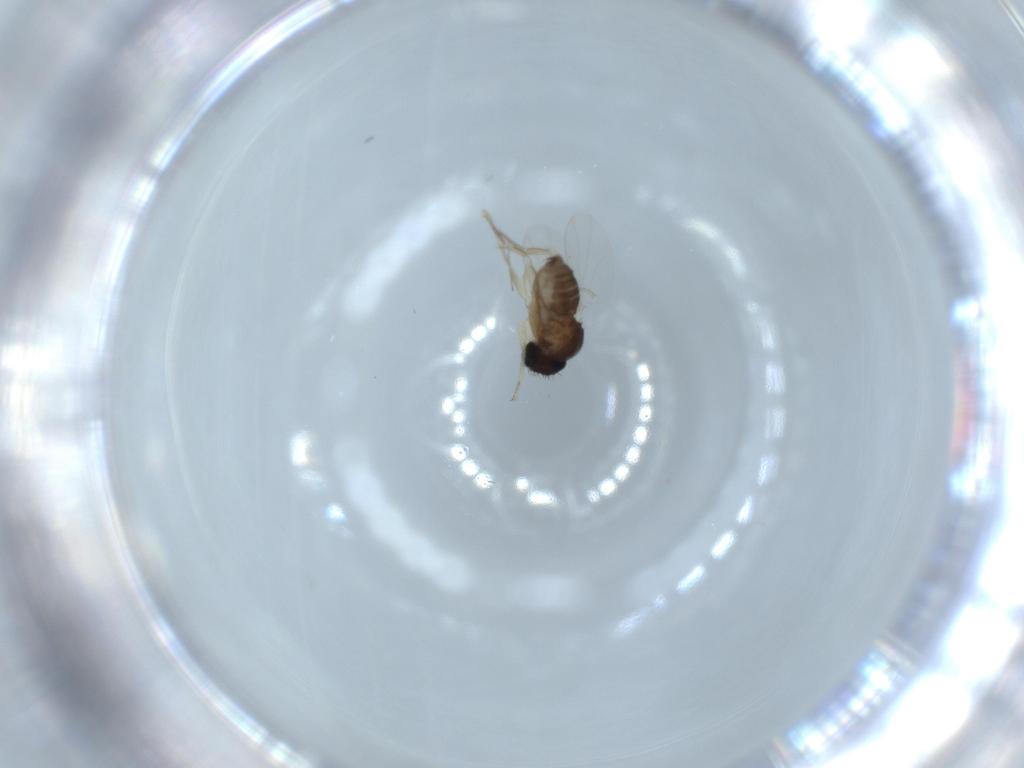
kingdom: Animalia
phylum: Arthropoda
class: Insecta
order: Diptera
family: Phoridae
